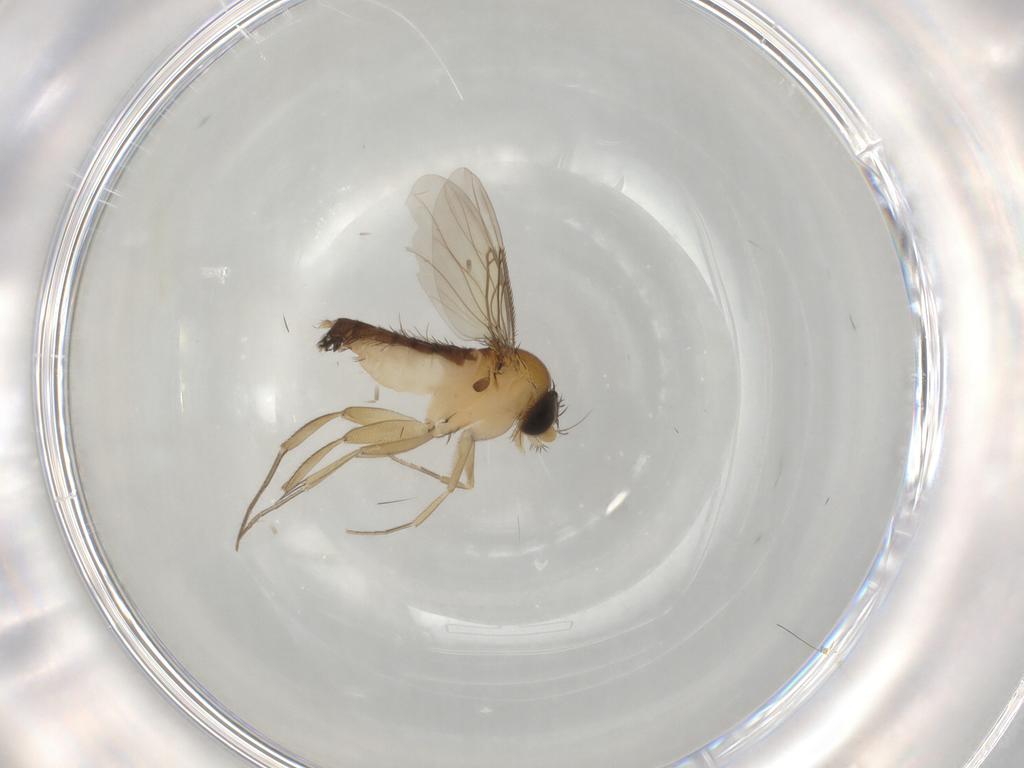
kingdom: Animalia
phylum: Arthropoda
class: Insecta
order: Diptera
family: Phoridae
